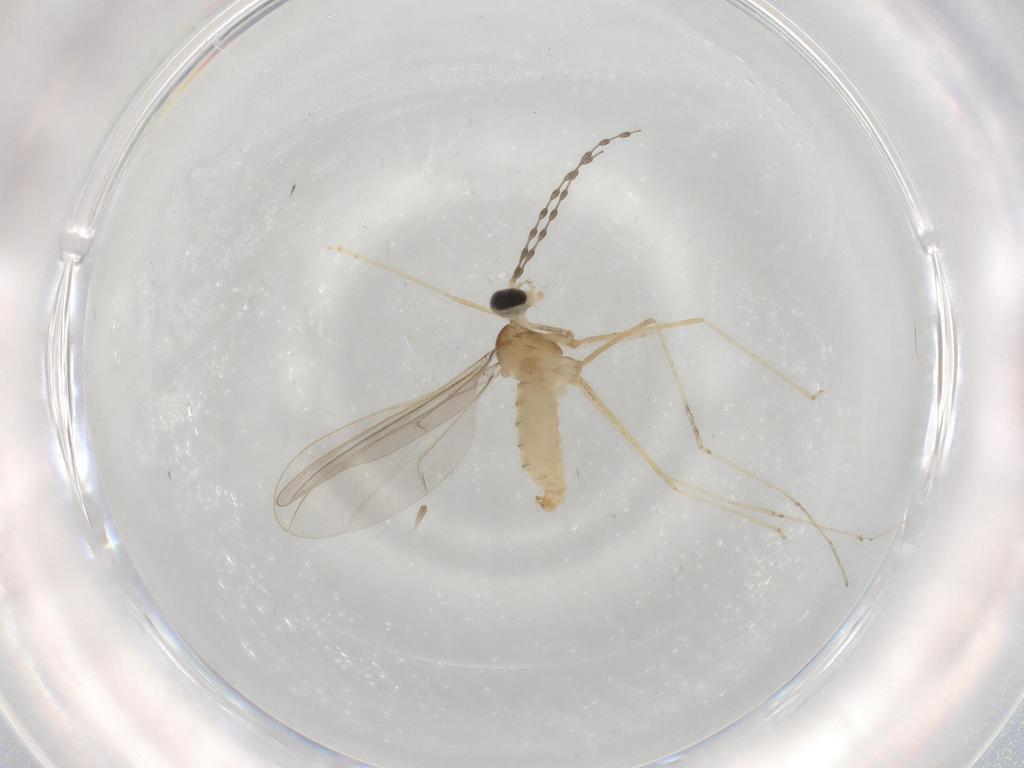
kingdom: Animalia
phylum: Arthropoda
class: Insecta
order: Diptera
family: Cecidomyiidae
